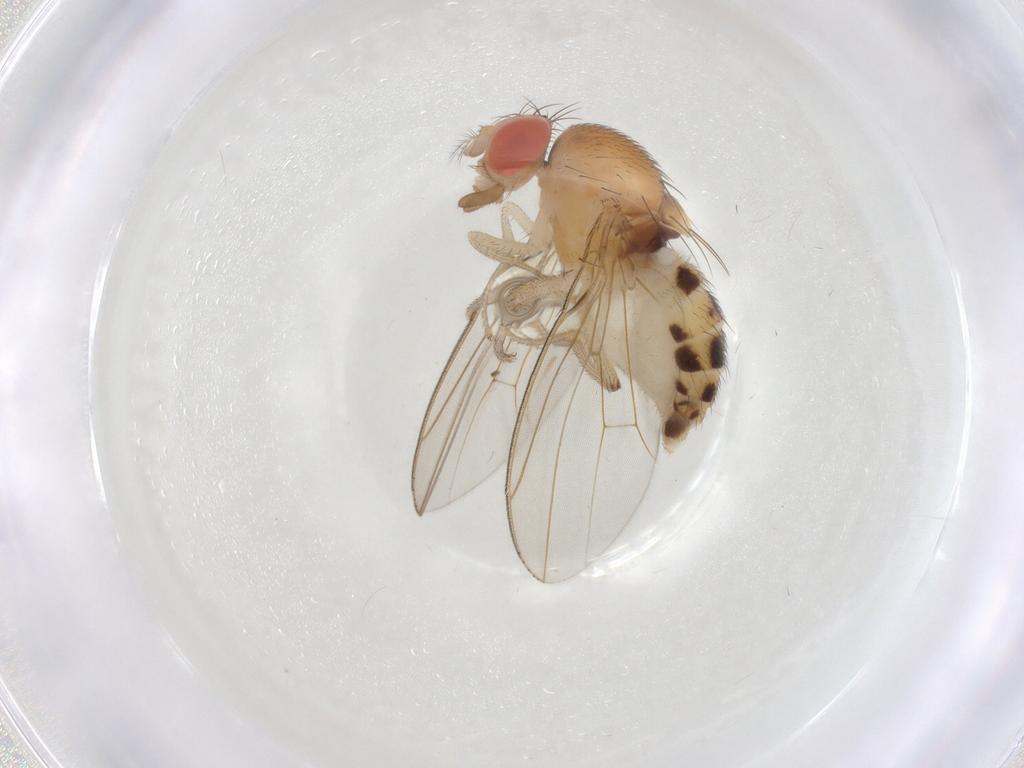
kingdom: Animalia
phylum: Arthropoda
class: Insecta
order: Diptera
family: Drosophilidae
